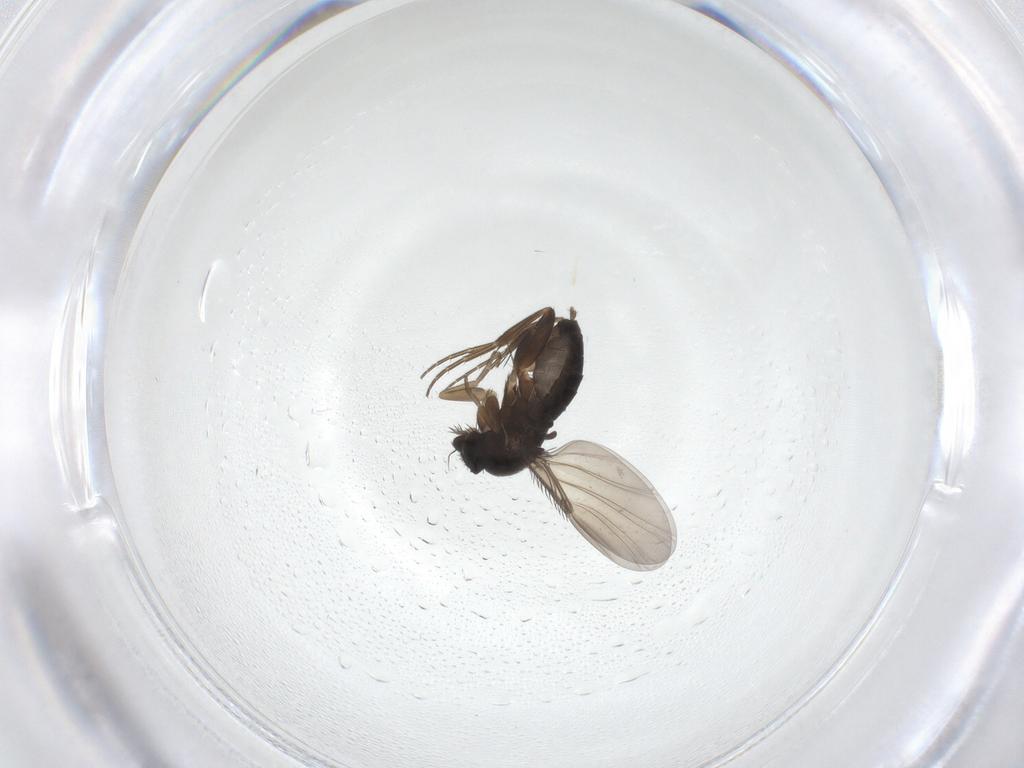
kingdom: Animalia
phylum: Arthropoda
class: Insecta
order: Diptera
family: Phoridae
